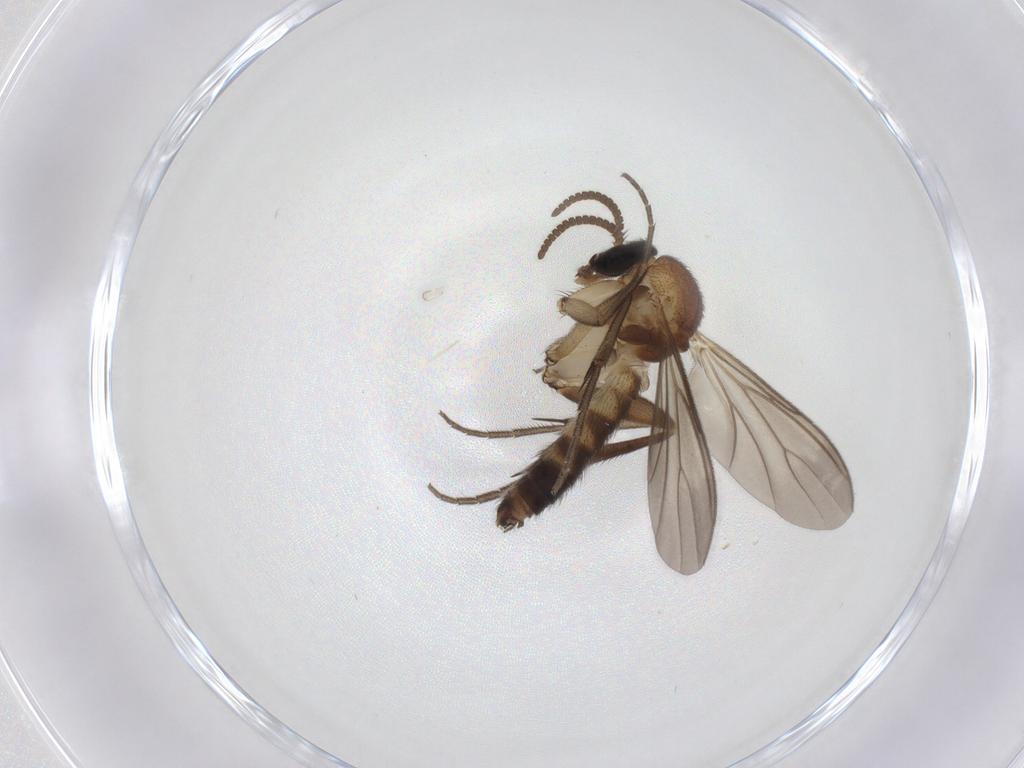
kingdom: Animalia
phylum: Arthropoda
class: Insecta
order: Diptera
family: Mycetophilidae
